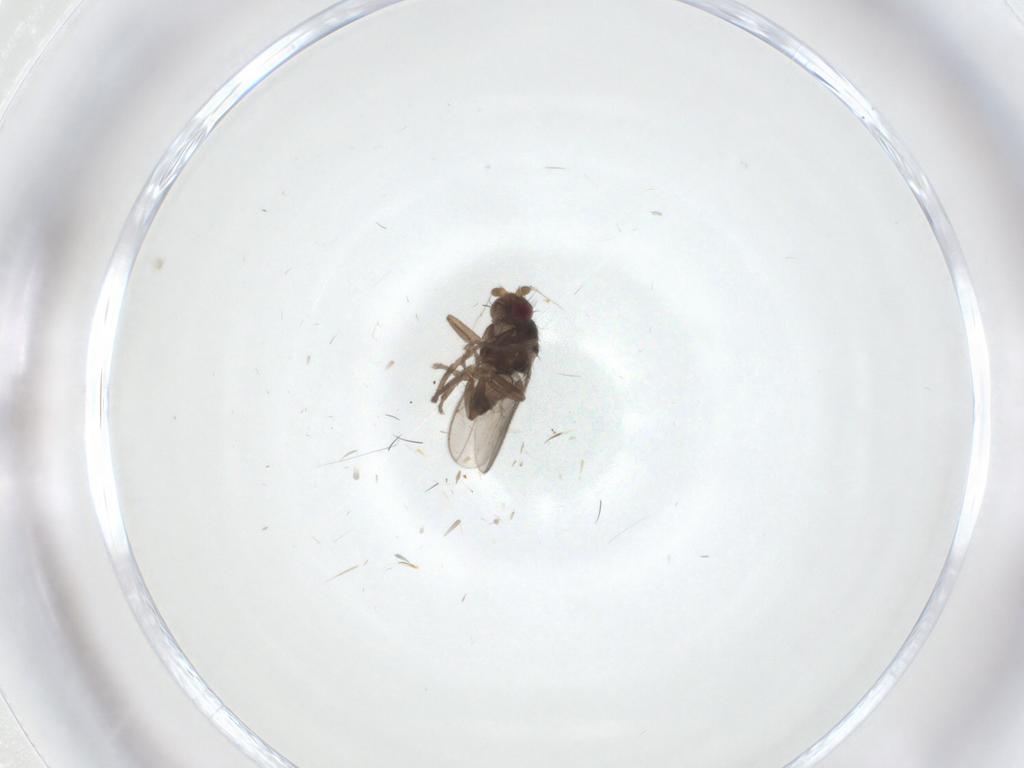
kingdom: Animalia
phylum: Arthropoda
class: Insecta
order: Diptera
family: Sphaeroceridae
